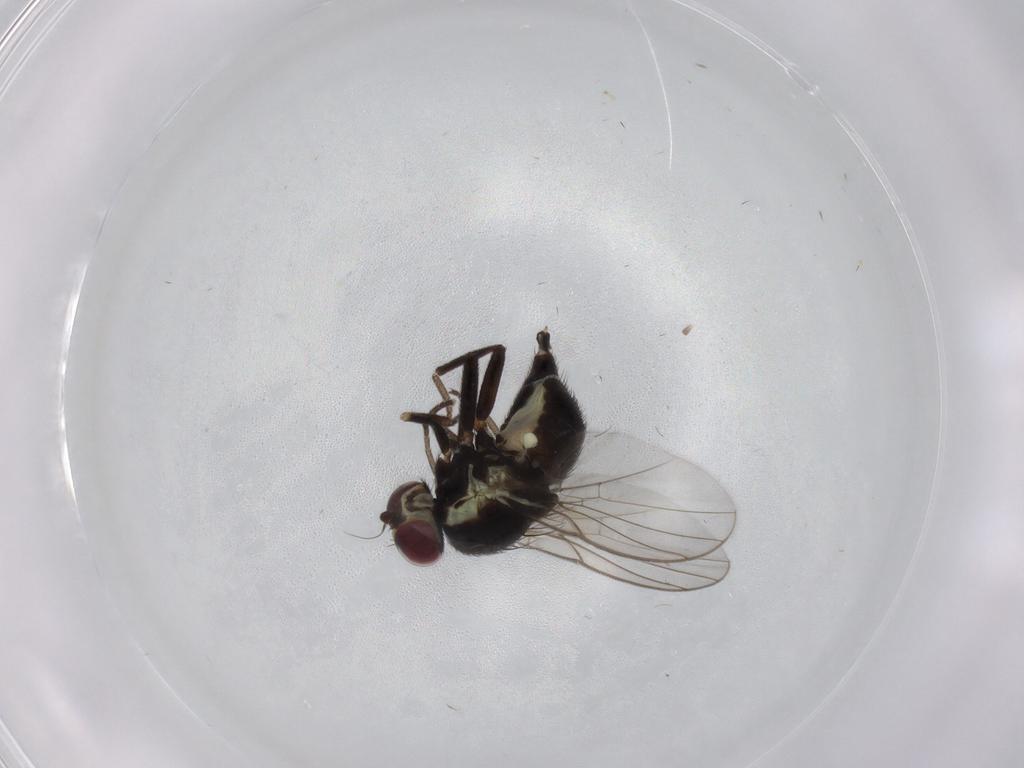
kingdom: Animalia
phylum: Arthropoda
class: Insecta
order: Diptera
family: Agromyzidae
